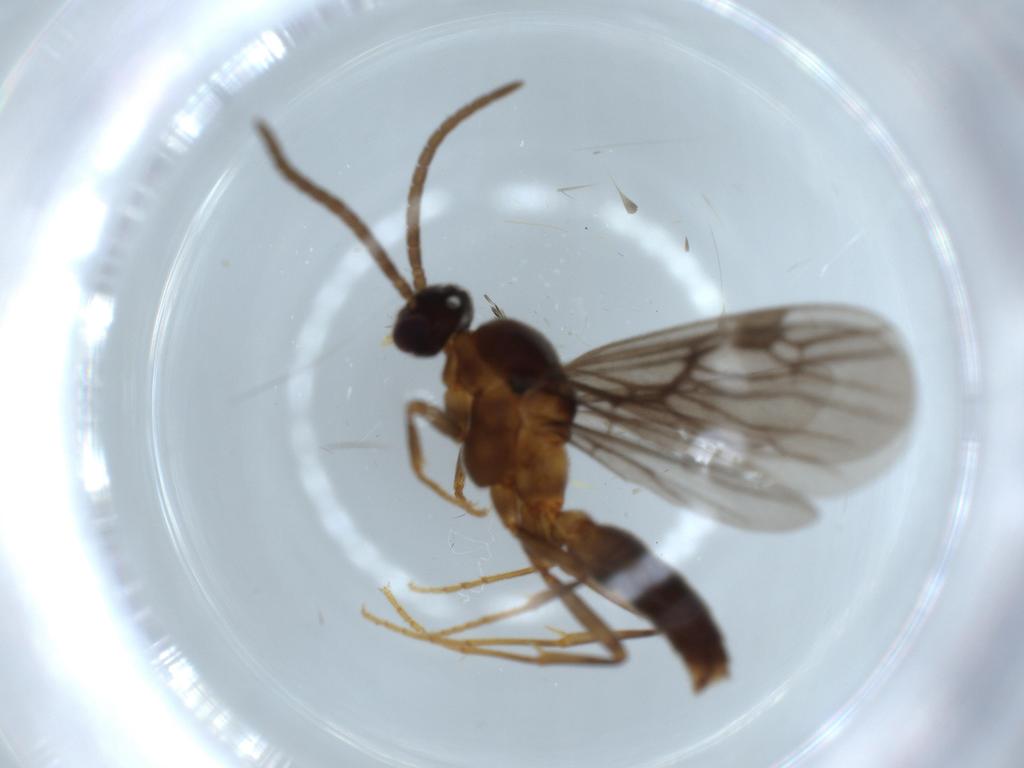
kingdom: Animalia
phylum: Arthropoda
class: Insecta
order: Hymenoptera
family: Formicidae
